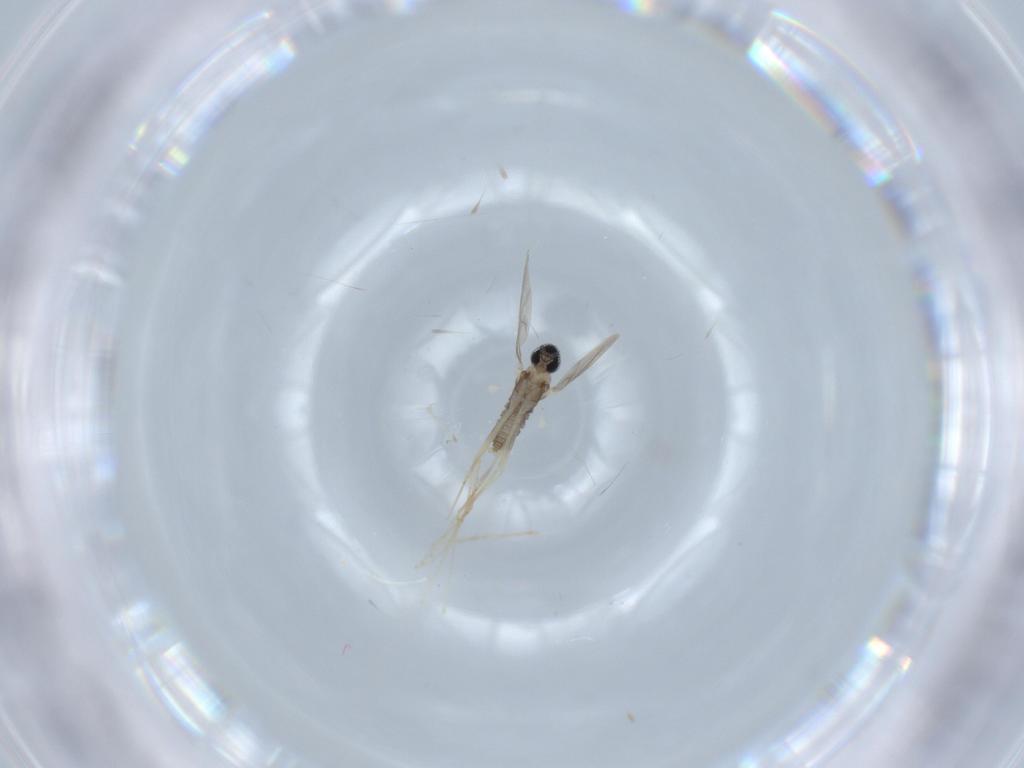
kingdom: Animalia
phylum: Arthropoda
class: Insecta
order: Diptera
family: Cecidomyiidae
